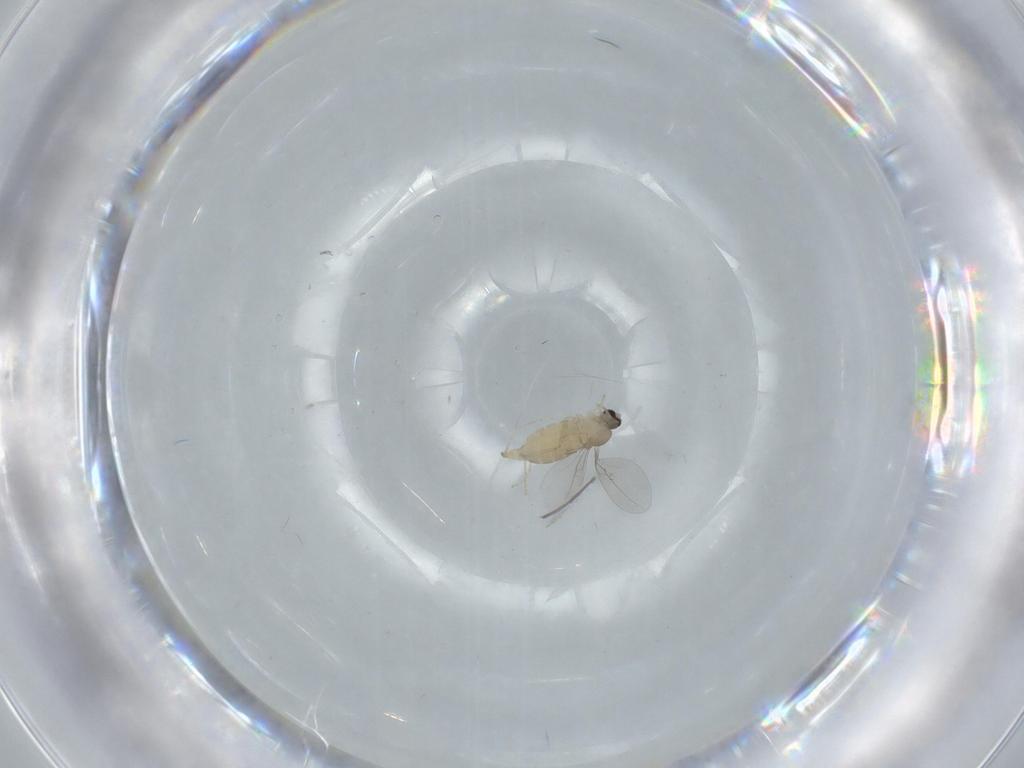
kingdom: Animalia
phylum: Arthropoda
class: Insecta
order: Diptera
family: Cecidomyiidae
